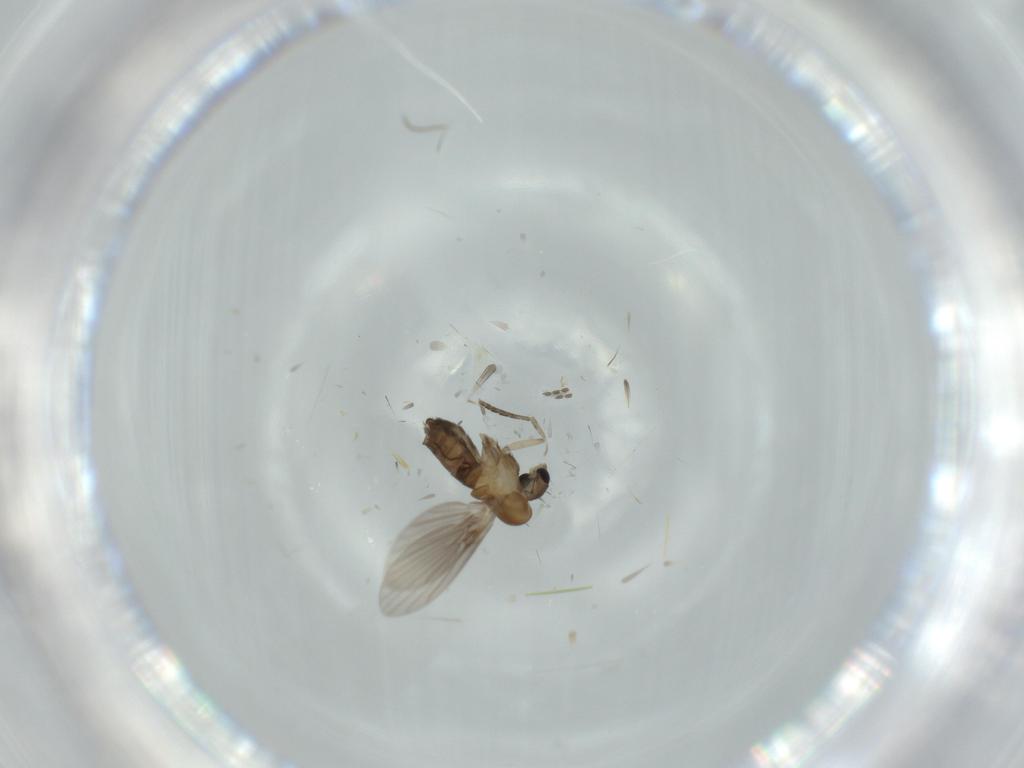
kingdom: Animalia
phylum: Arthropoda
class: Insecta
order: Diptera
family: Psychodidae
